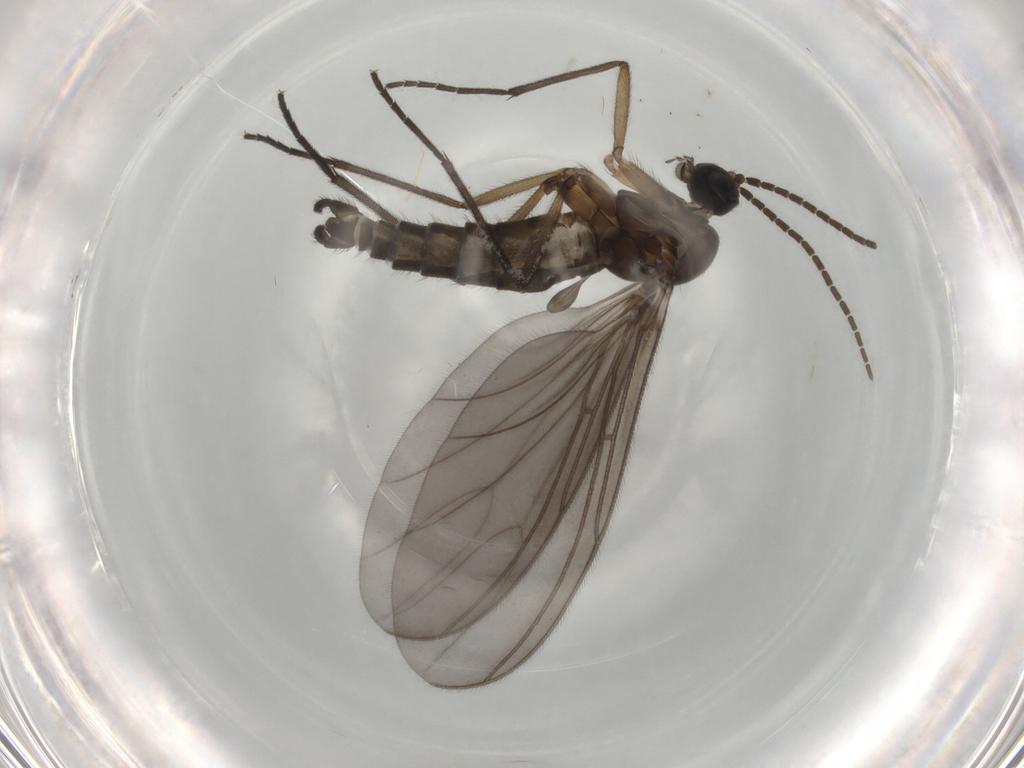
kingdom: Animalia
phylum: Arthropoda
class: Insecta
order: Diptera
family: Sciaridae
